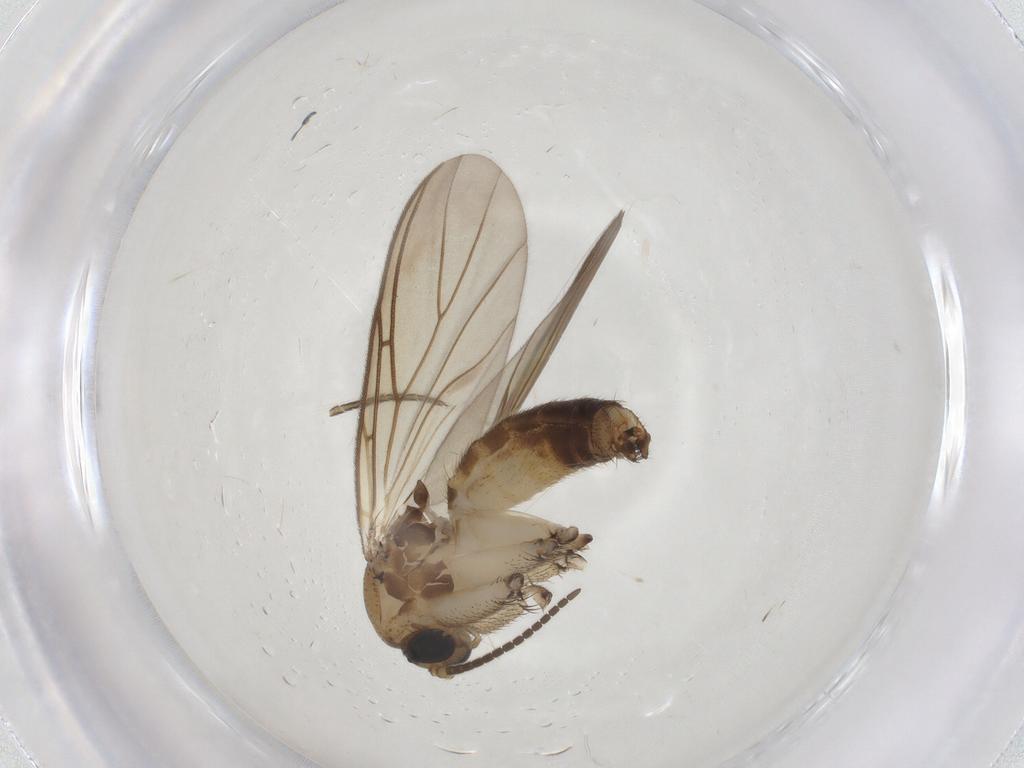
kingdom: Animalia
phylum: Arthropoda
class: Insecta
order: Diptera
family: Mycetophilidae
